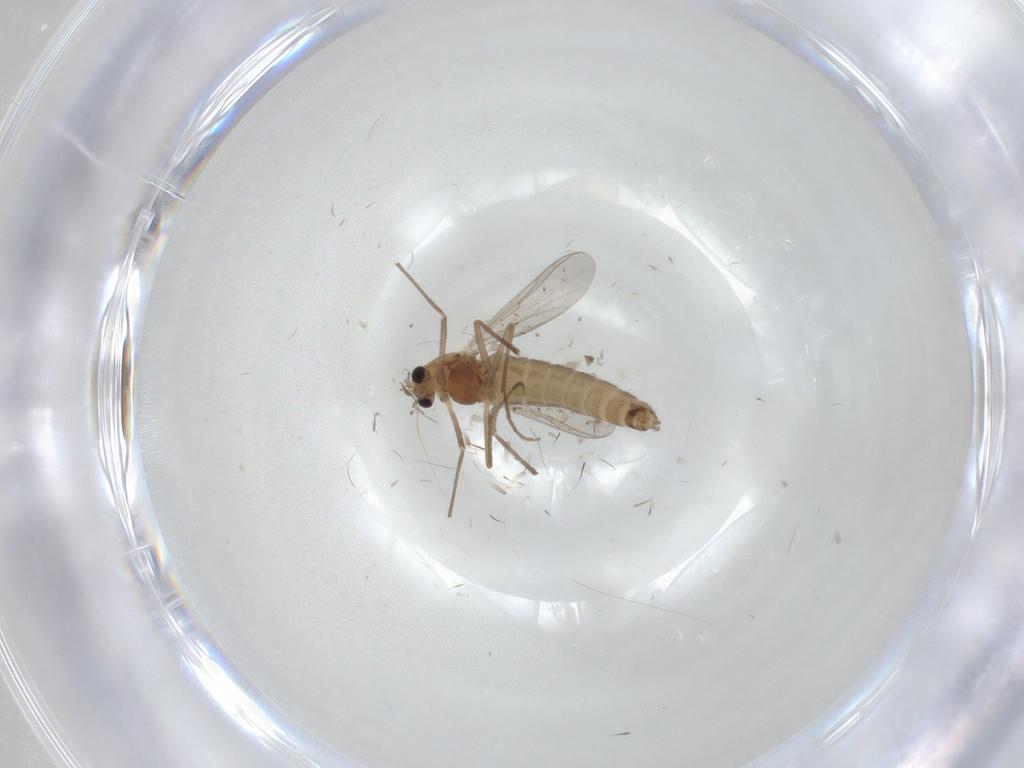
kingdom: Animalia
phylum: Arthropoda
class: Insecta
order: Diptera
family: Chironomidae
